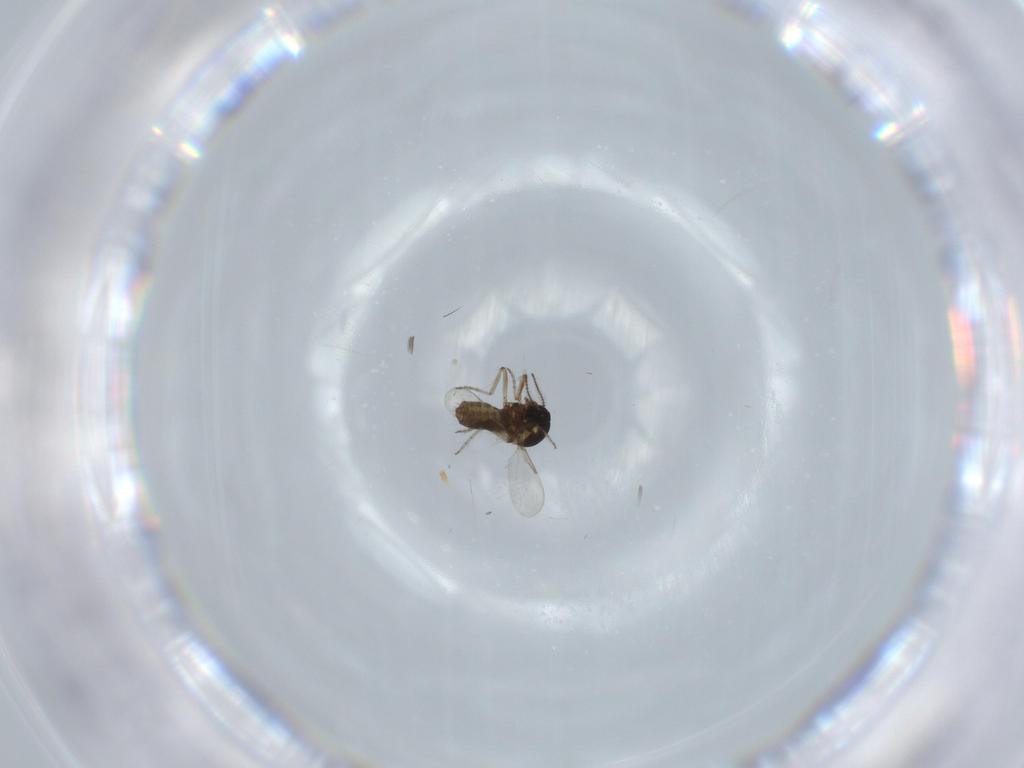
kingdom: Animalia
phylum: Arthropoda
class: Insecta
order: Diptera
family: Ceratopogonidae
